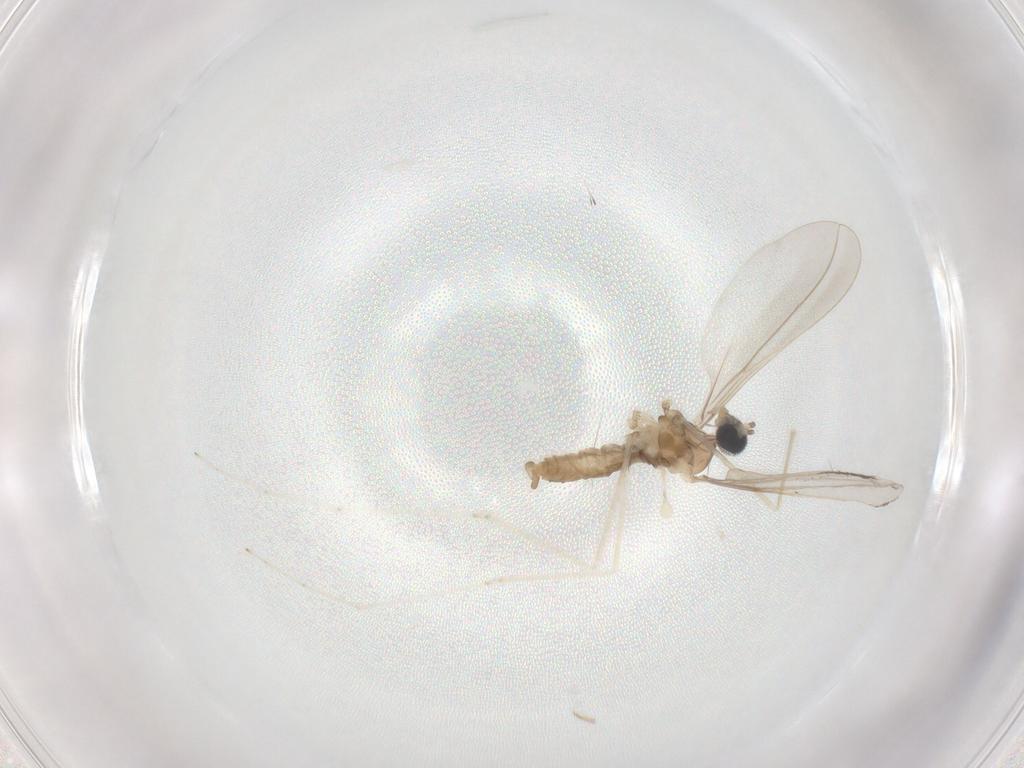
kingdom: Animalia
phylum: Arthropoda
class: Insecta
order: Diptera
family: Cecidomyiidae
